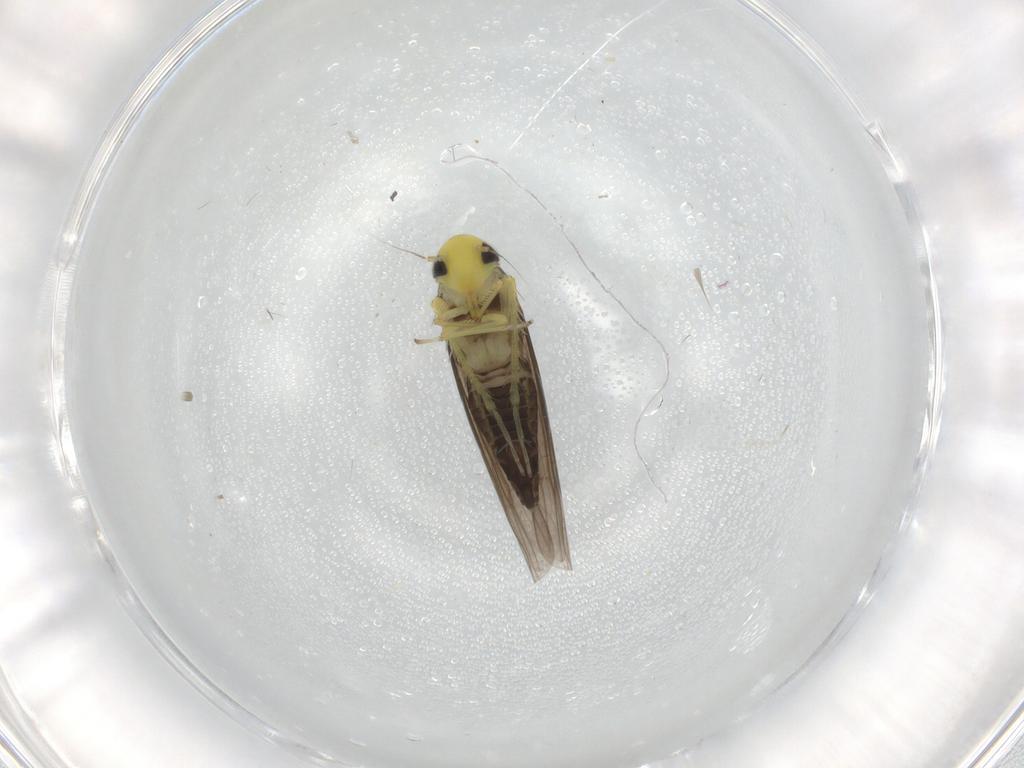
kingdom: Animalia
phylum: Arthropoda
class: Insecta
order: Hemiptera
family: Cicadellidae
